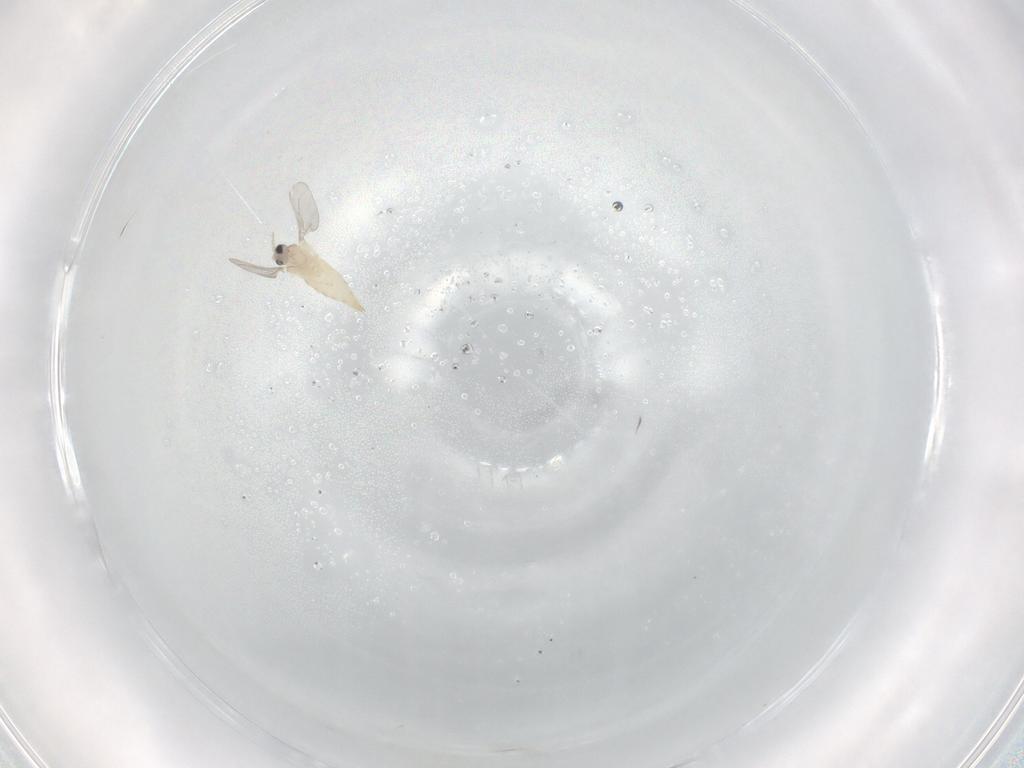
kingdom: Animalia
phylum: Arthropoda
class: Insecta
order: Diptera
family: Cecidomyiidae
